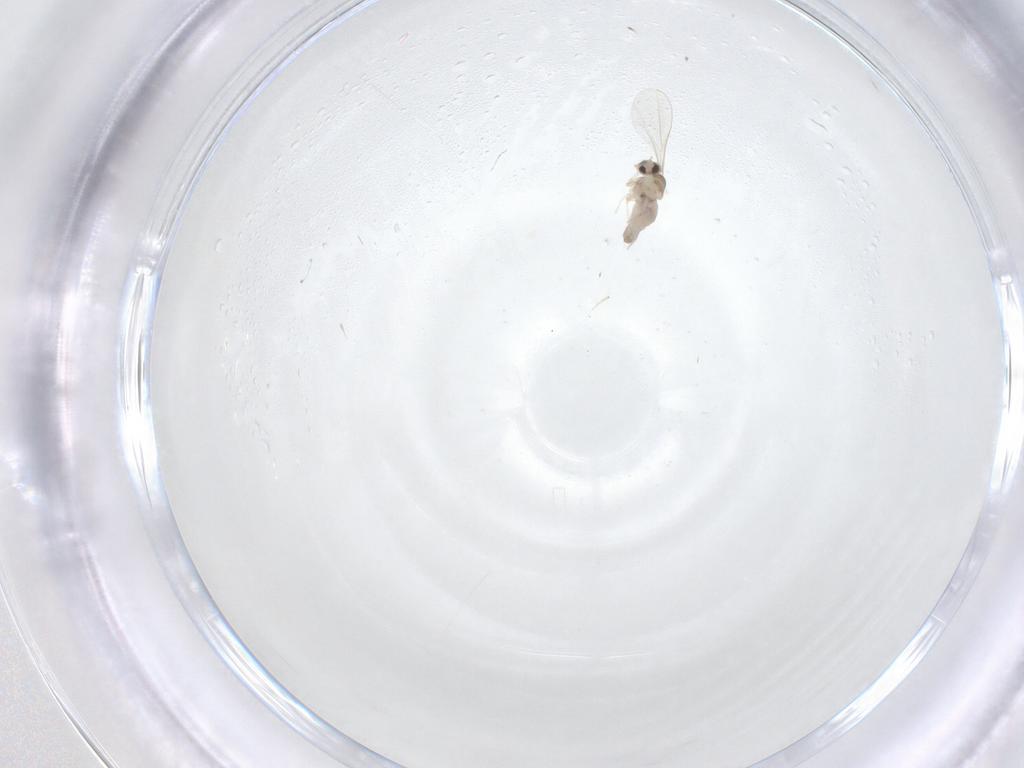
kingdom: Animalia
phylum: Arthropoda
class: Insecta
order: Diptera
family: Cecidomyiidae
